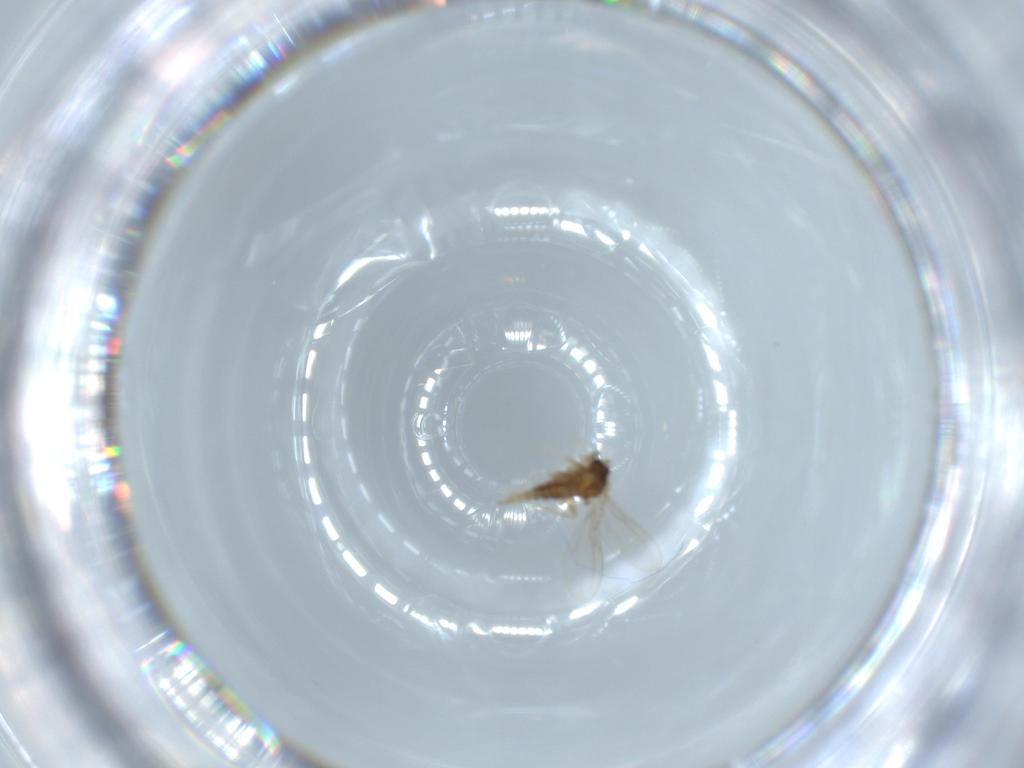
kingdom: Animalia
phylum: Arthropoda
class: Insecta
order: Diptera
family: Cecidomyiidae
